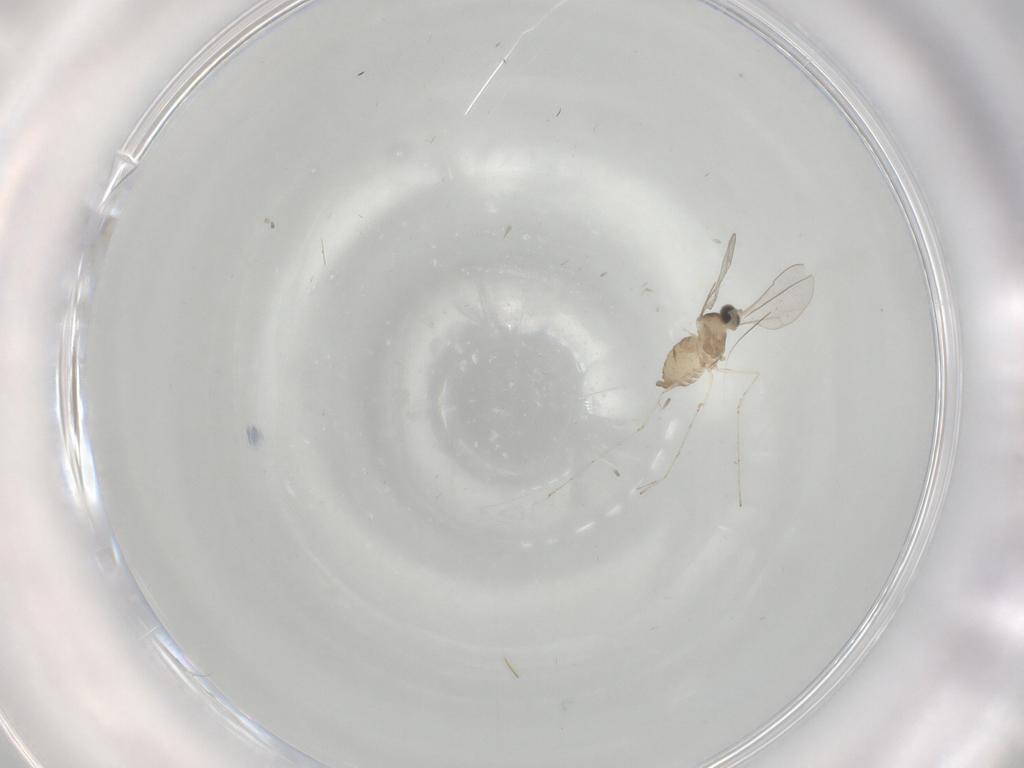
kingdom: Animalia
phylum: Arthropoda
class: Insecta
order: Diptera
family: Cecidomyiidae
